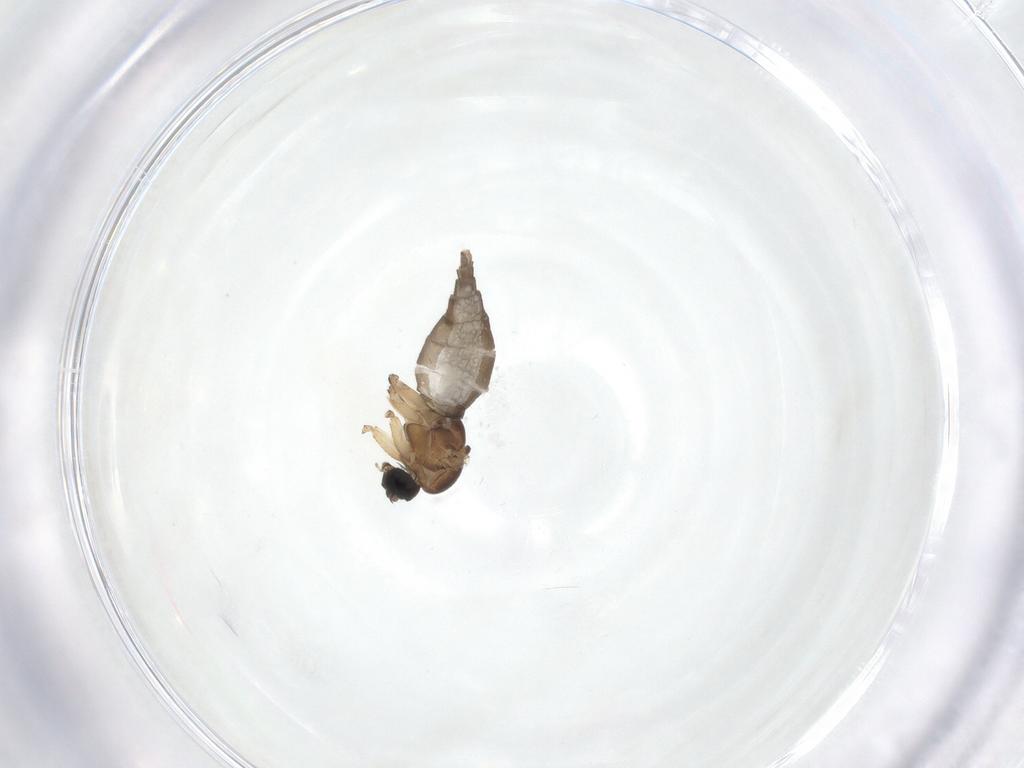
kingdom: Animalia
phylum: Arthropoda
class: Insecta
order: Diptera
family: Sciaridae
